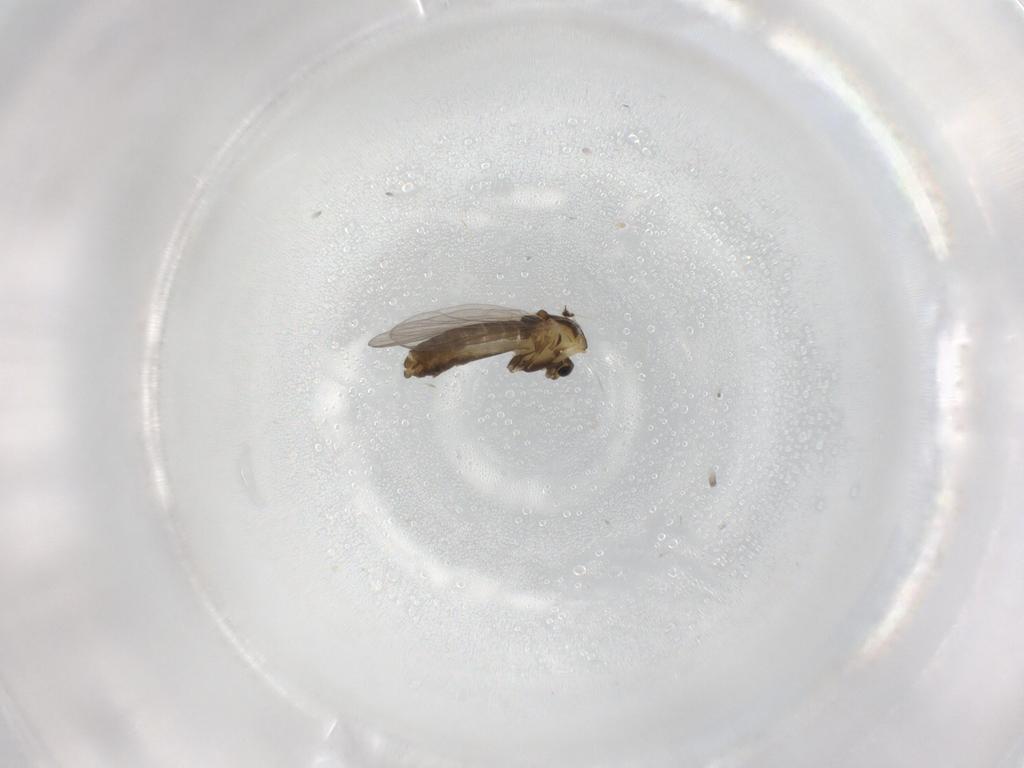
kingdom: Animalia
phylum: Arthropoda
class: Insecta
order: Diptera
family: Chironomidae
